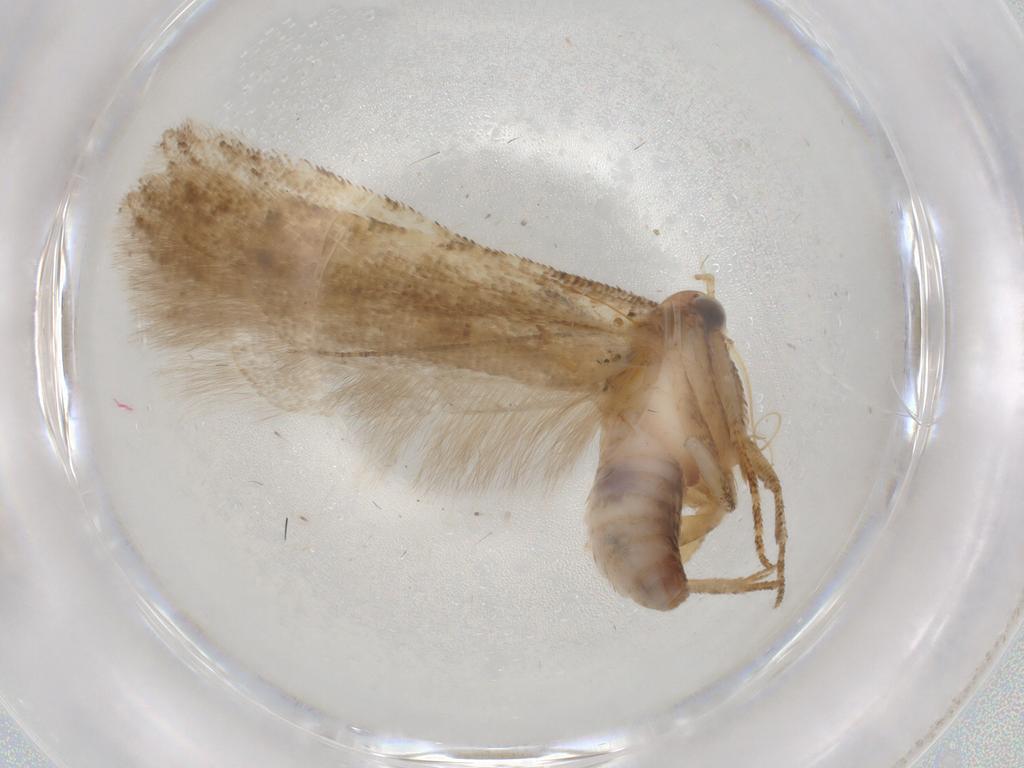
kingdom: Animalia
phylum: Arthropoda
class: Insecta
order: Lepidoptera
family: Gelechiidae
